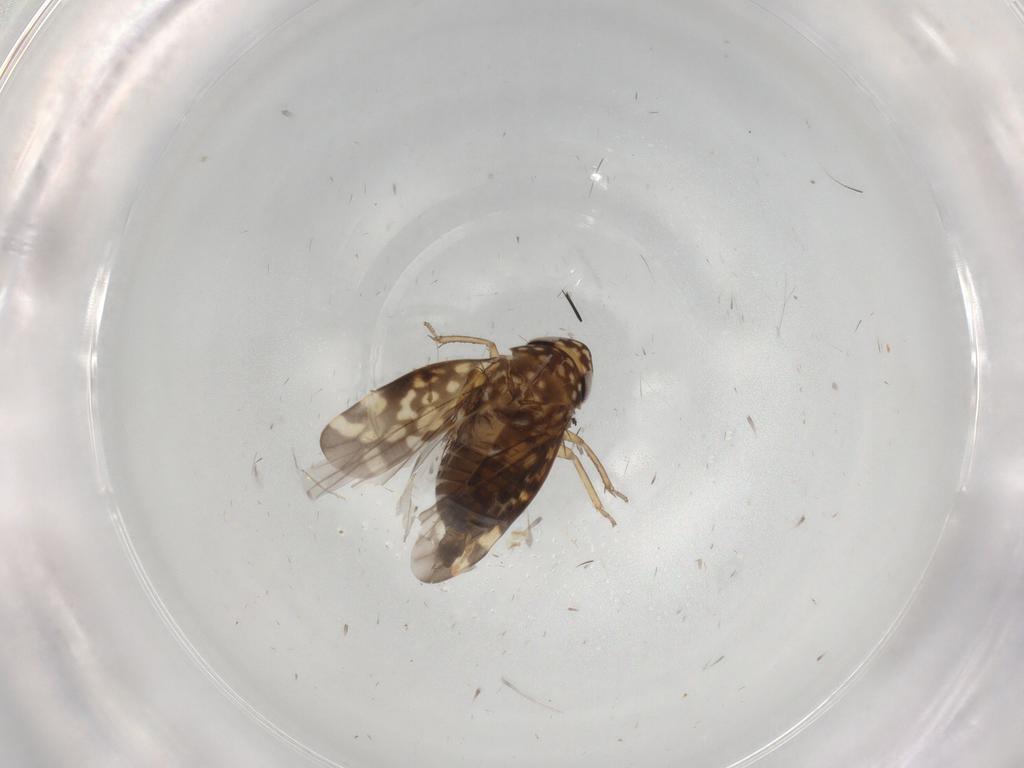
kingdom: Animalia
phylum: Arthropoda
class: Insecta
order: Hemiptera
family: Cicadellidae
